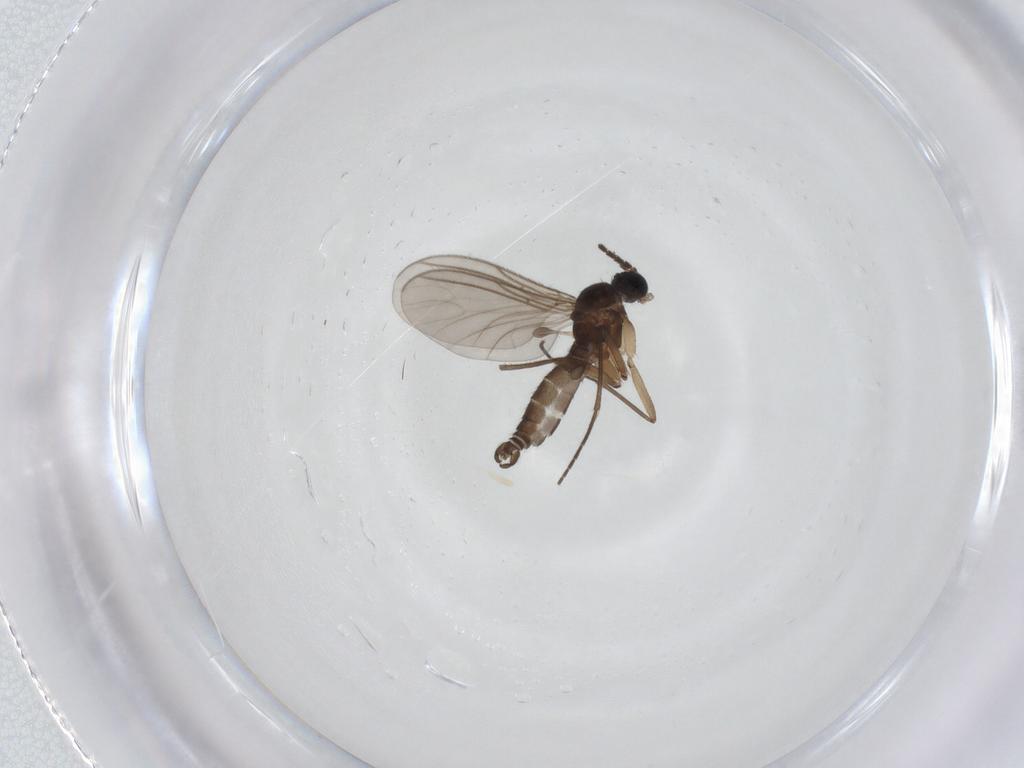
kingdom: Animalia
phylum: Arthropoda
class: Insecta
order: Diptera
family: Sciaridae
